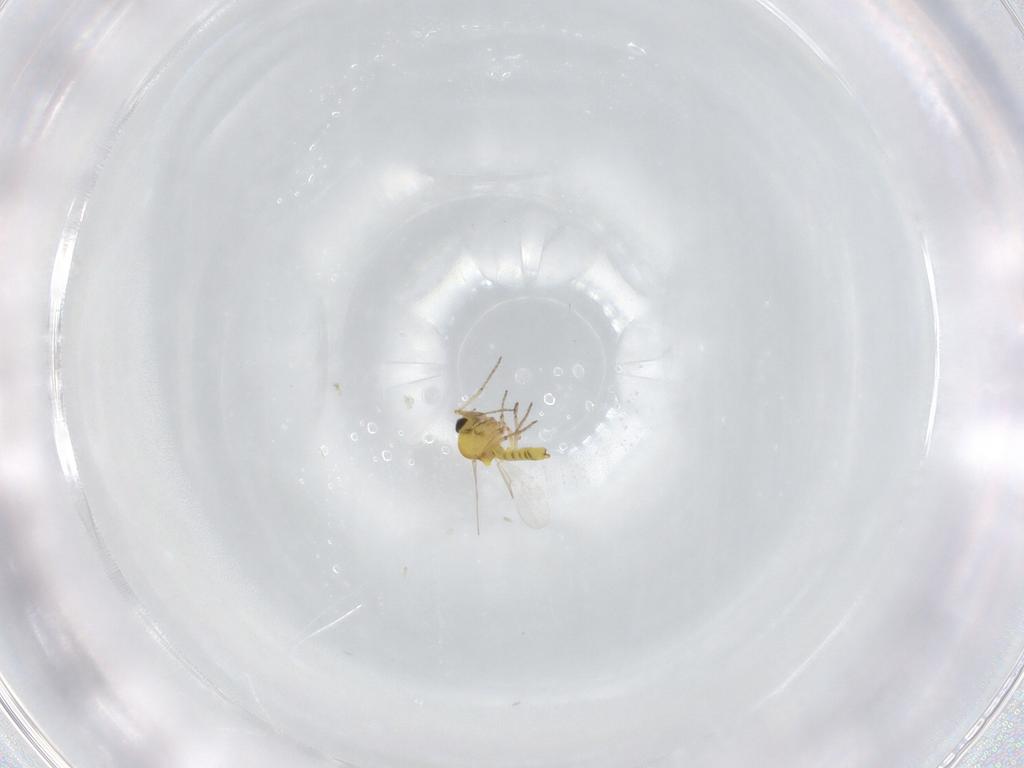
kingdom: Animalia
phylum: Arthropoda
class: Insecta
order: Diptera
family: Ceratopogonidae
